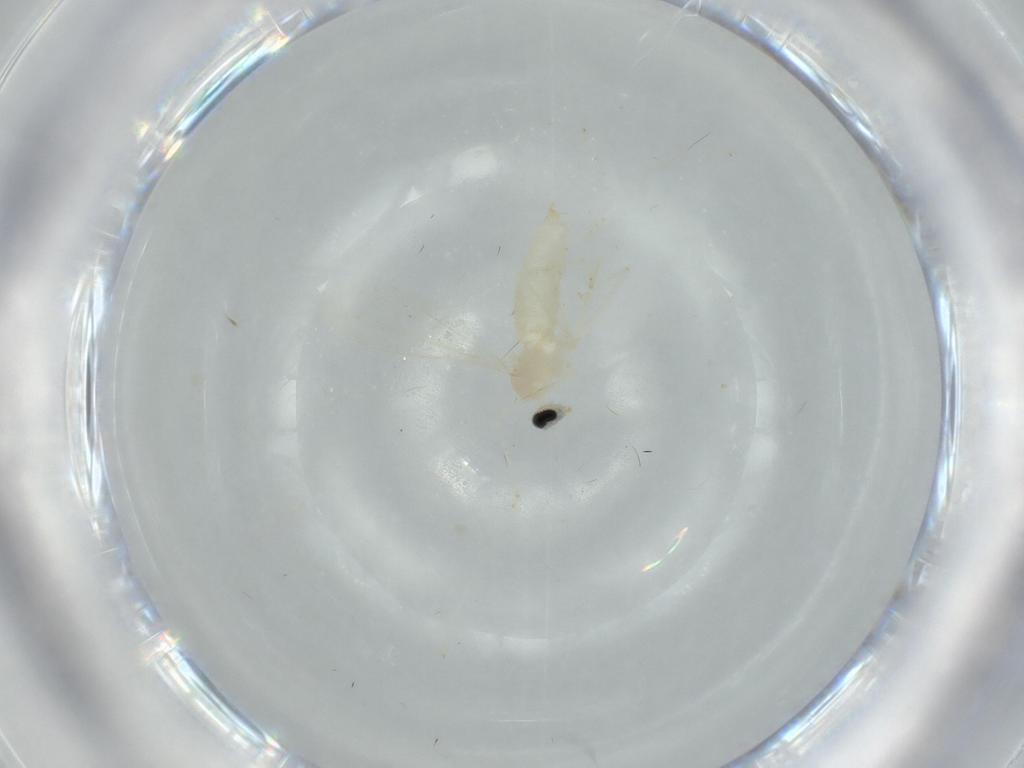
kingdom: Animalia
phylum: Arthropoda
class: Insecta
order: Diptera
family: Cecidomyiidae
